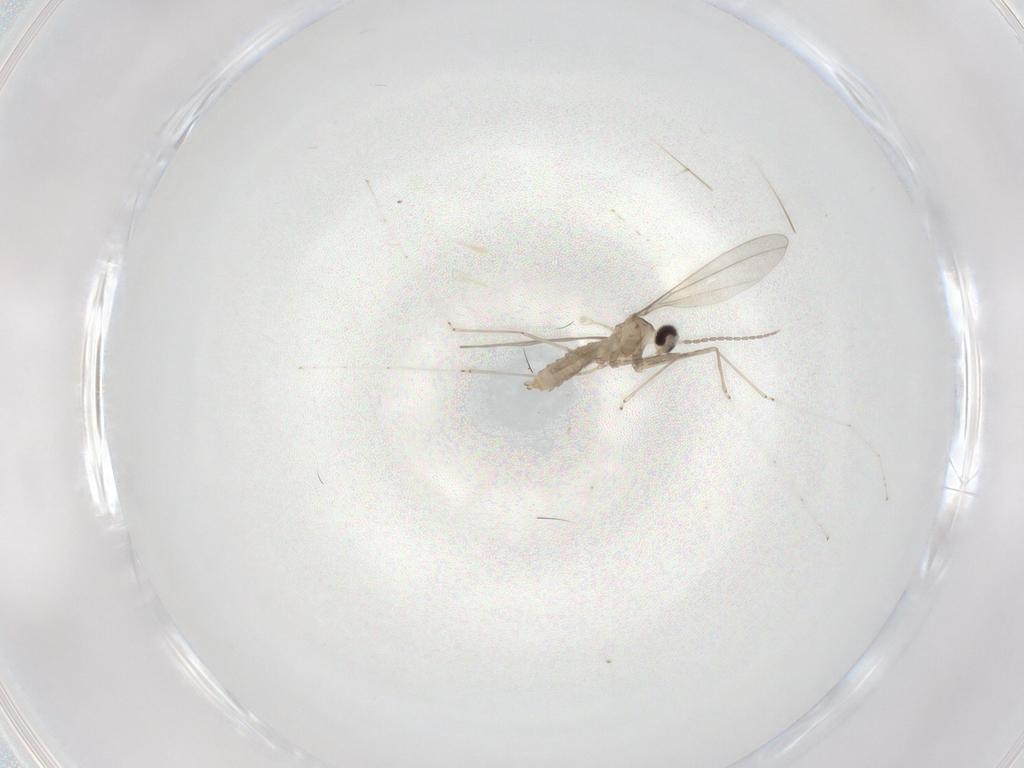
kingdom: Animalia
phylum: Arthropoda
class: Insecta
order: Diptera
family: Cecidomyiidae
